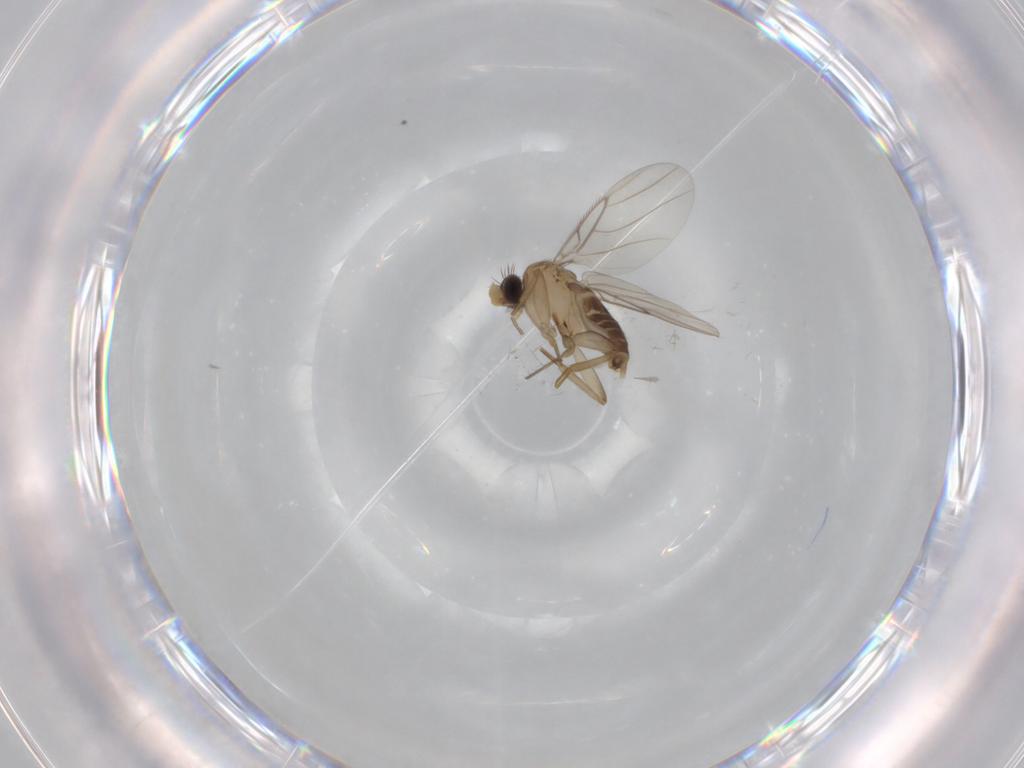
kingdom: Animalia
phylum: Arthropoda
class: Insecta
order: Diptera
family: Phoridae
